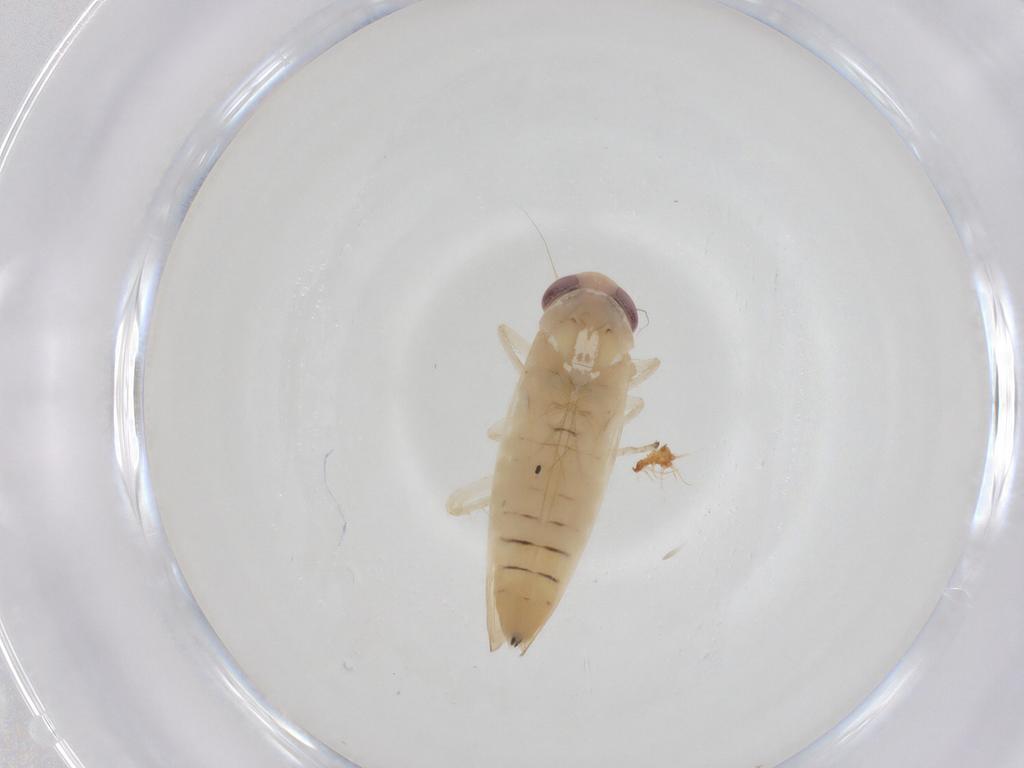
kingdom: Animalia
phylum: Arthropoda
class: Insecta
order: Hemiptera
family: Cicadellidae
